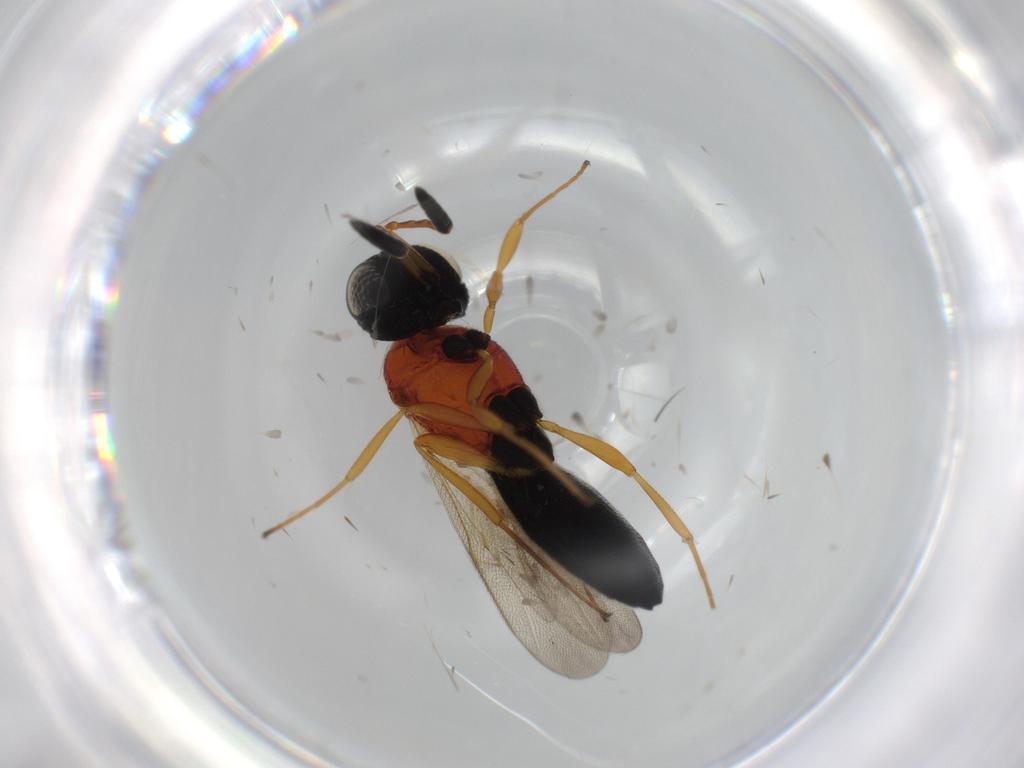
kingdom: Animalia
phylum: Arthropoda
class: Insecta
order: Hymenoptera
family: Scelionidae
